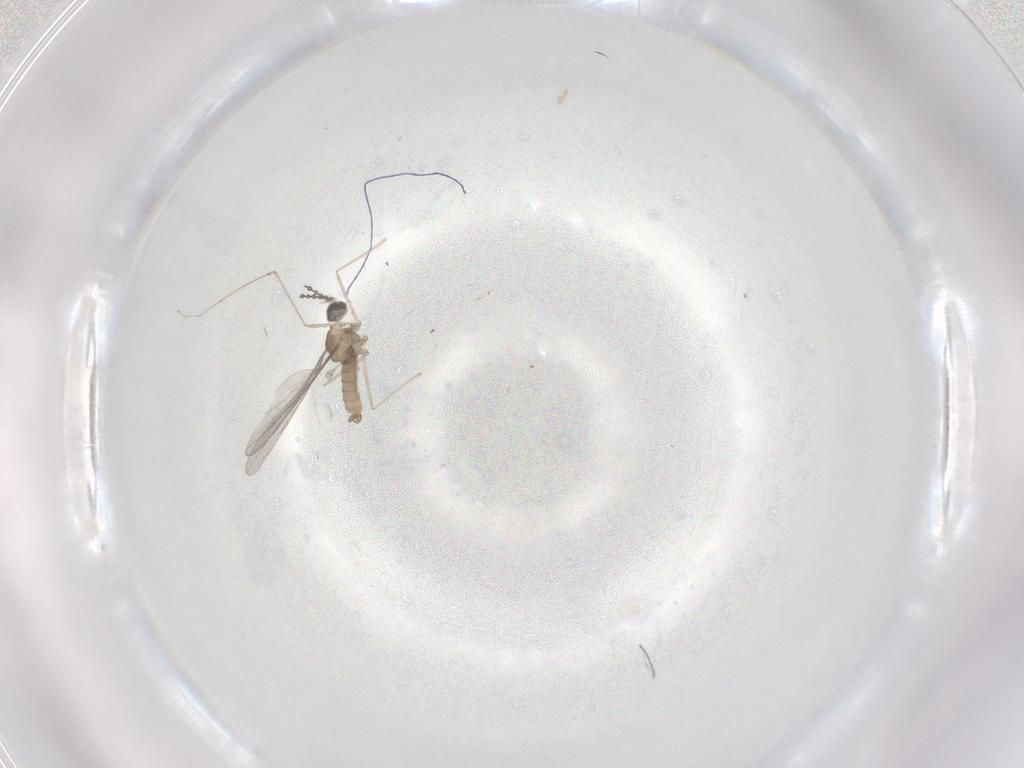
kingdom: Animalia
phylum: Arthropoda
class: Insecta
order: Diptera
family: Cecidomyiidae
